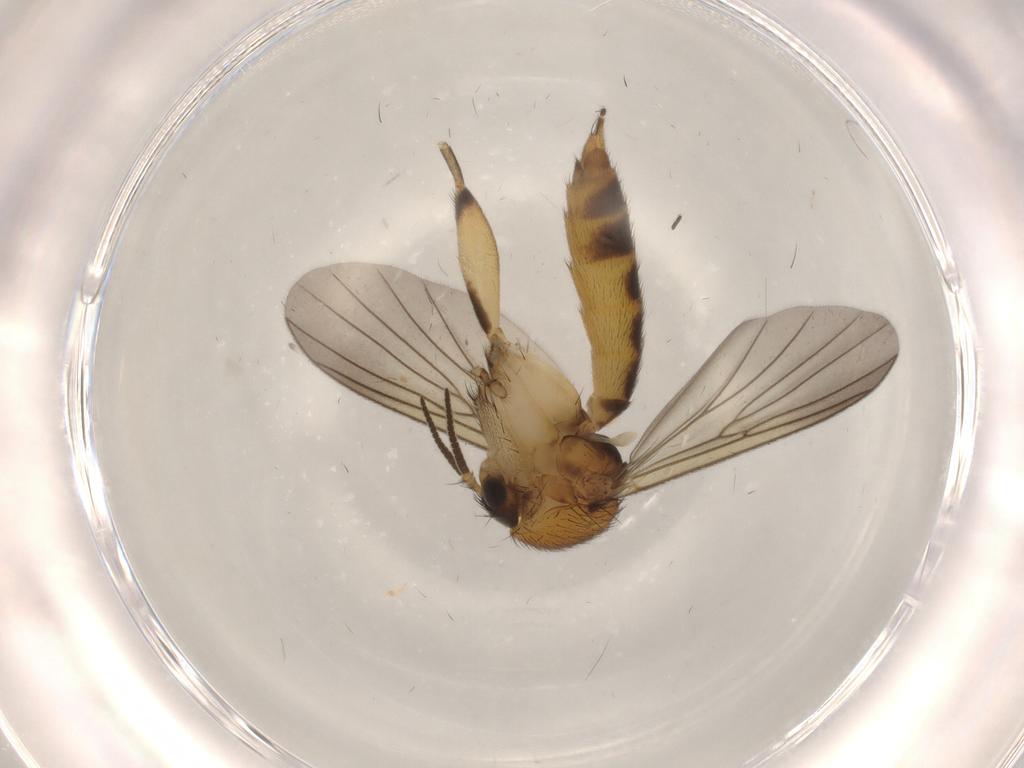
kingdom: Animalia
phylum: Arthropoda
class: Insecta
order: Diptera
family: Mycetophilidae
